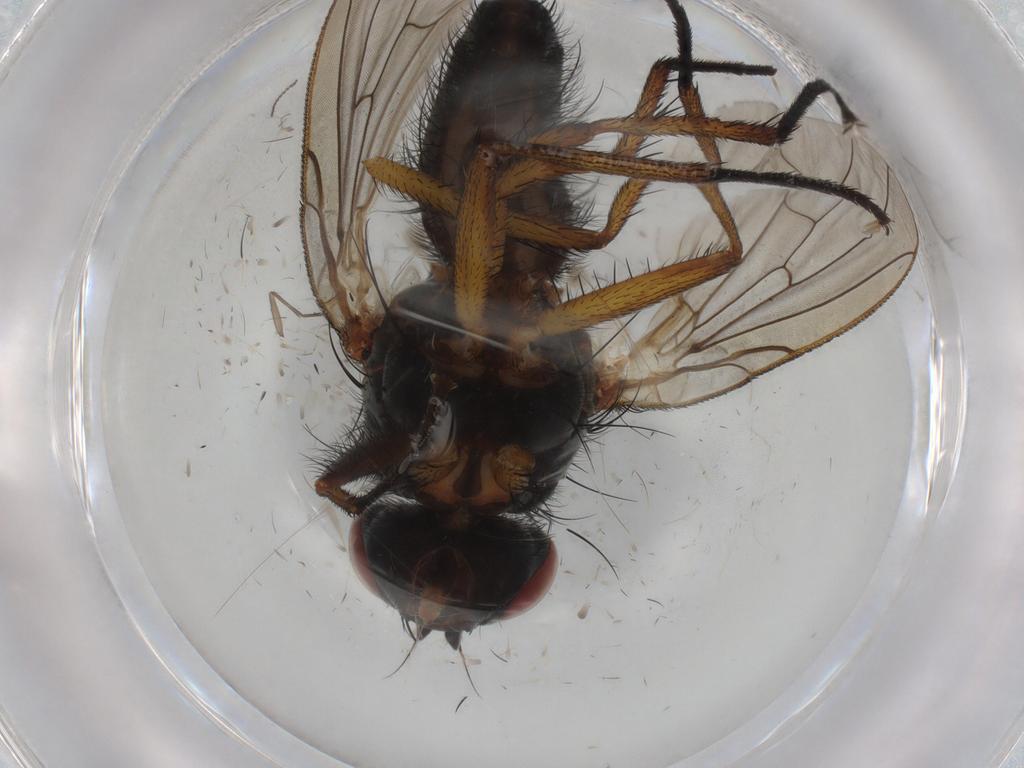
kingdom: Animalia
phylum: Arthropoda
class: Insecta
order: Diptera
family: Anthomyiidae
